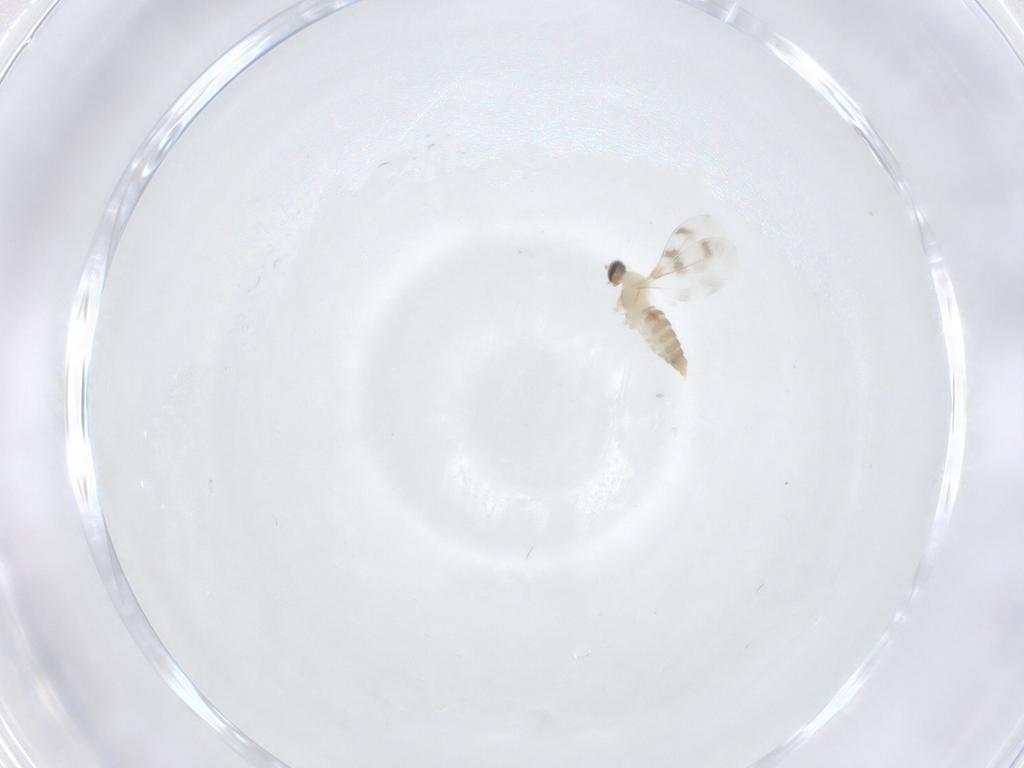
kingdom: Animalia
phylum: Arthropoda
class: Insecta
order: Diptera
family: Cecidomyiidae
